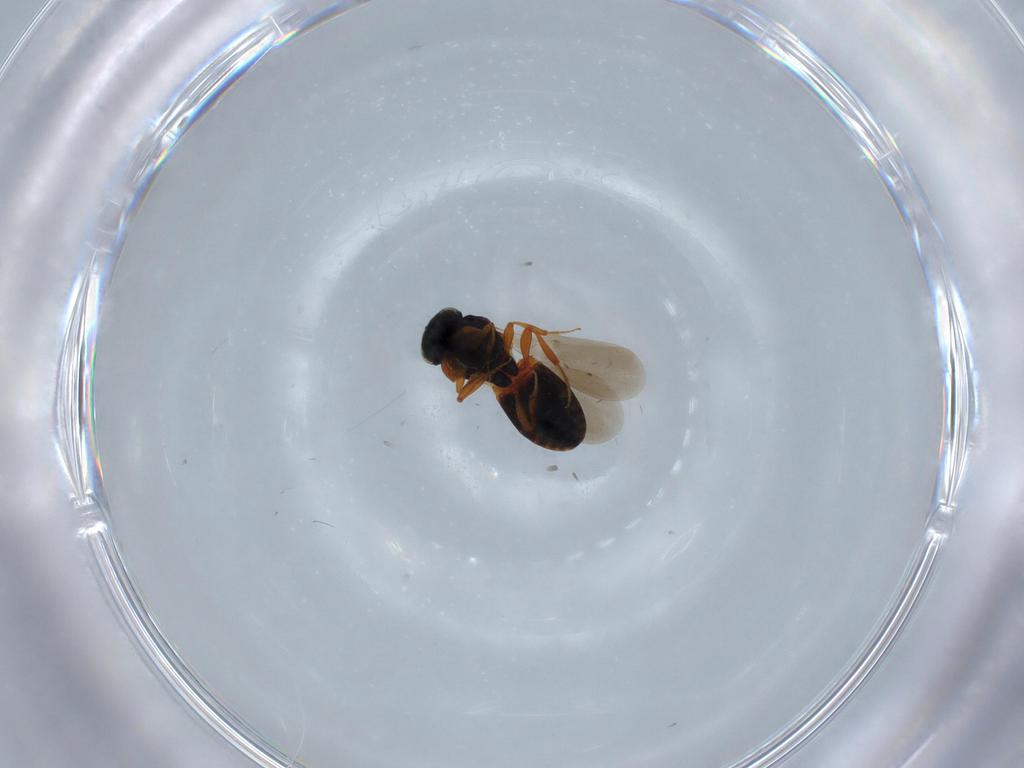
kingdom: Animalia
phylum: Arthropoda
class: Insecta
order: Hymenoptera
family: Platygastridae
